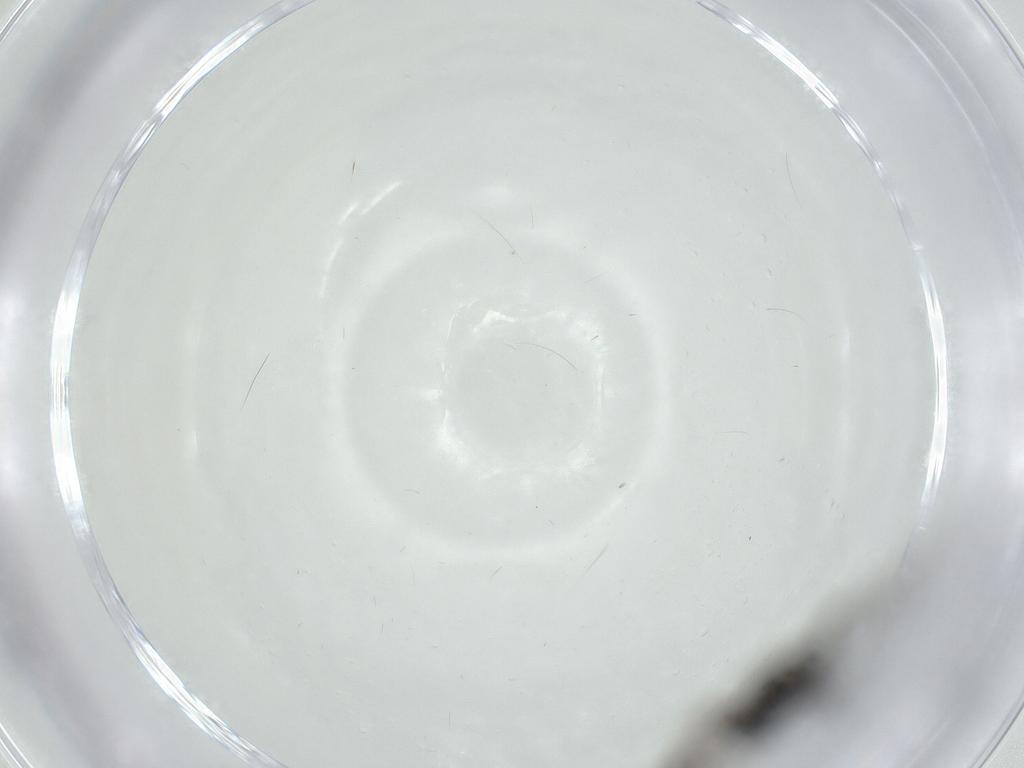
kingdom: Animalia
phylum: Arthropoda
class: Insecta
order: Diptera
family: Sciaridae
